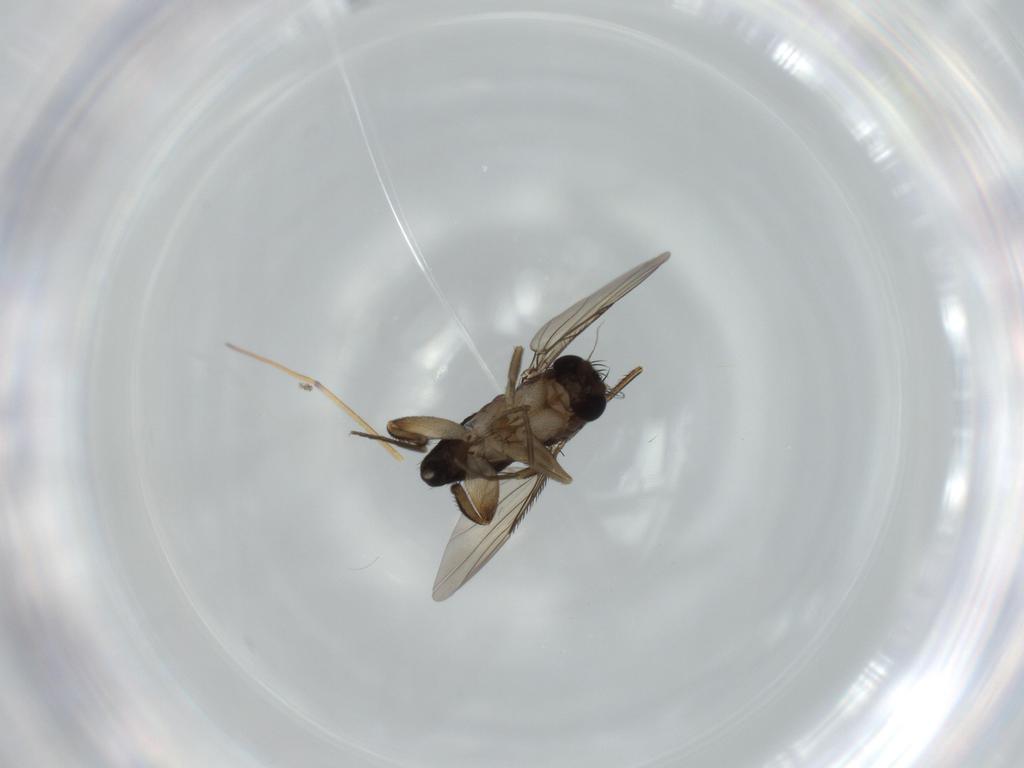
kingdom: Animalia
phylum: Arthropoda
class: Insecta
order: Diptera
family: Phoridae
